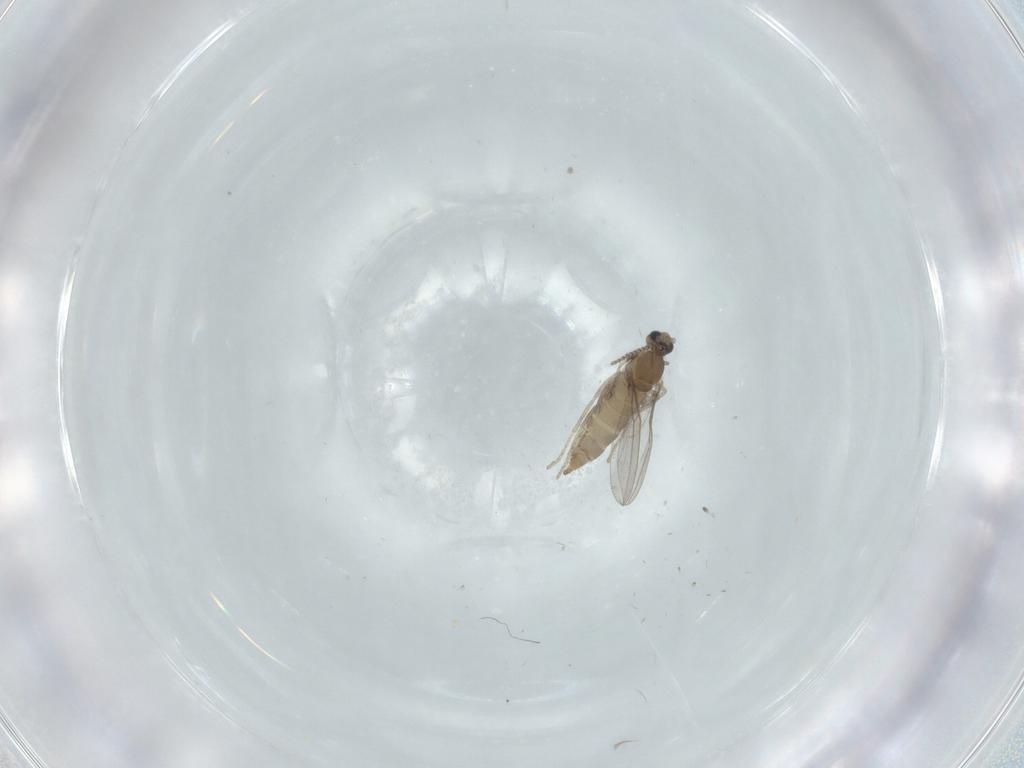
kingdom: Animalia
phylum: Arthropoda
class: Insecta
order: Diptera
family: Cecidomyiidae
